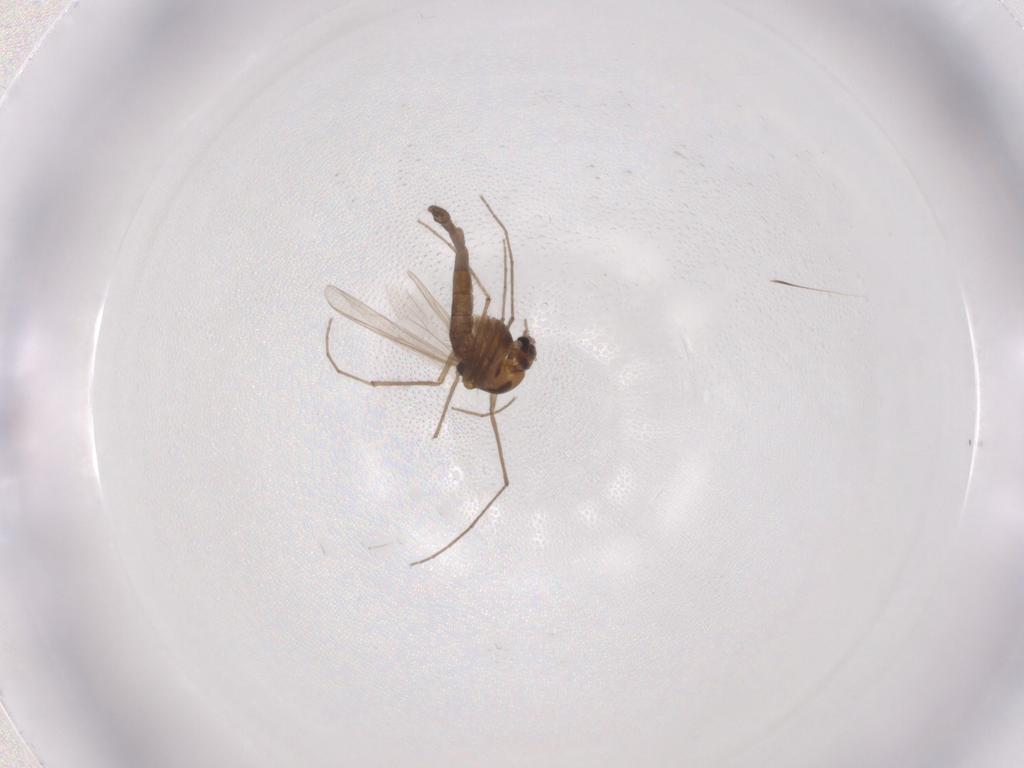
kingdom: Animalia
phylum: Arthropoda
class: Insecta
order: Diptera
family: Chironomidae
